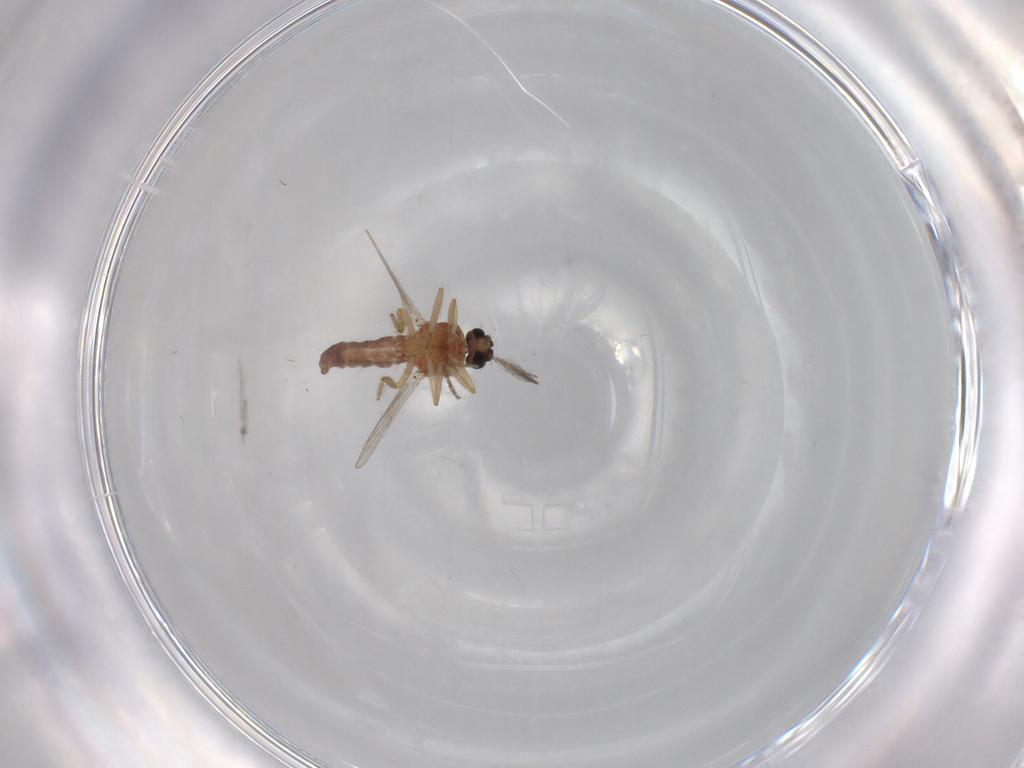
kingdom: Animalia
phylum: Arthropoda
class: Insecta
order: Diptera
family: Ceratopogonidae
